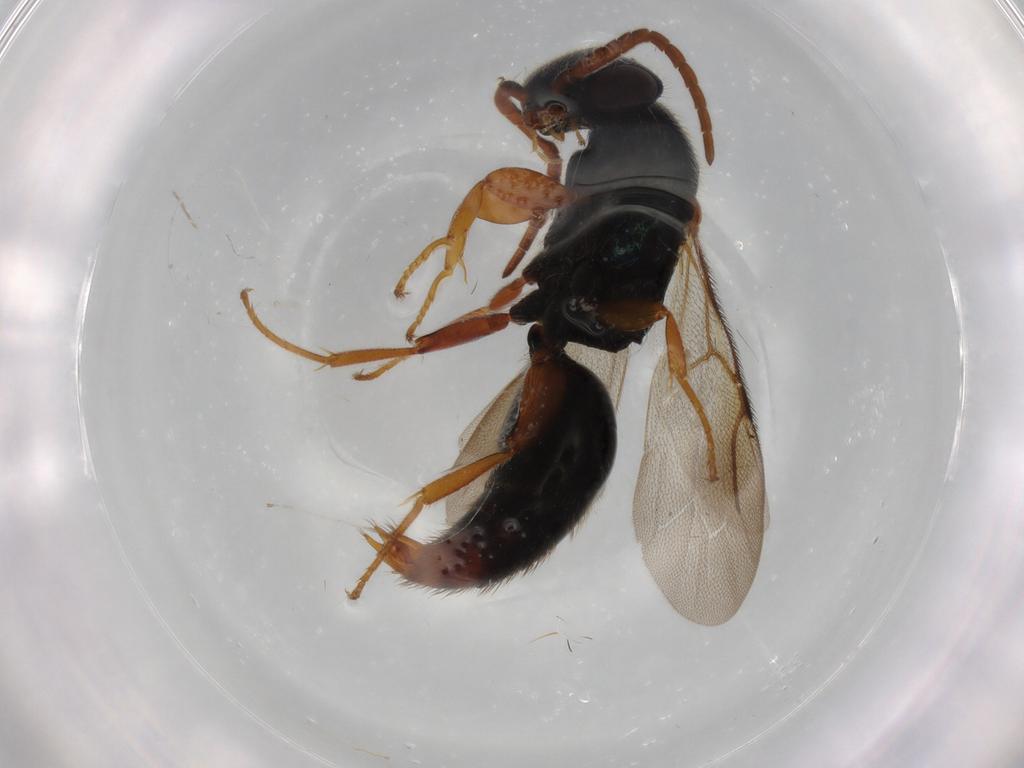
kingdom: Animalia
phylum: Arthropoda
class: Insecta
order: Hymenoptera
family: Bethylidae
